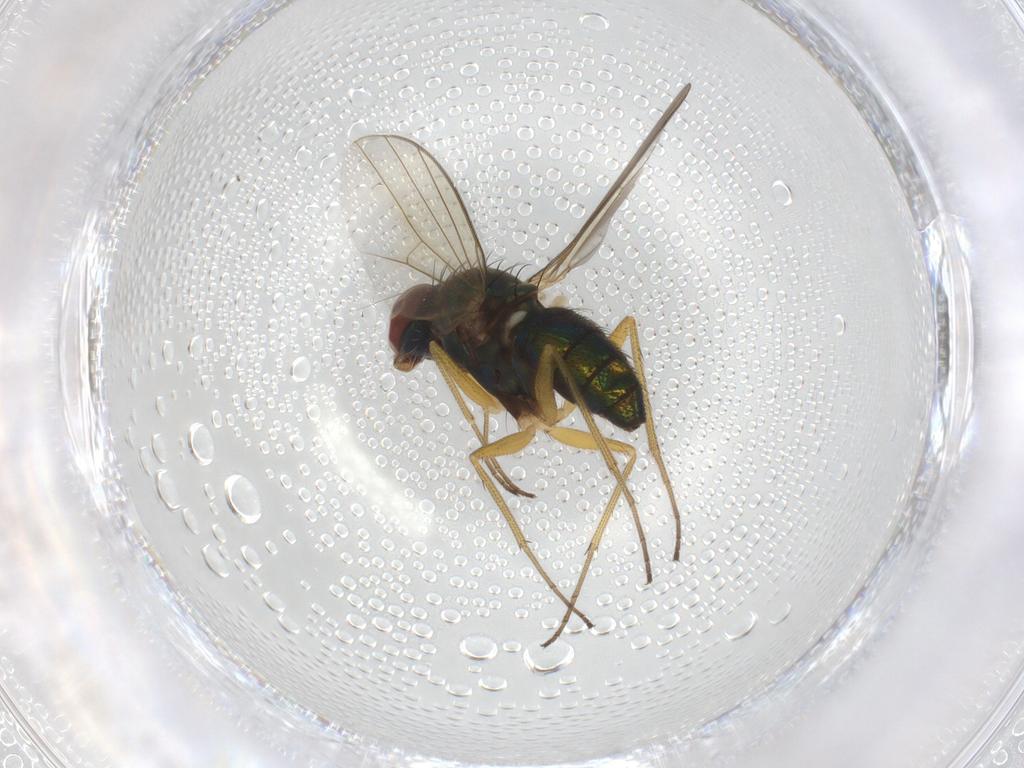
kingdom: Animalia
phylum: Arthropoda
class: Insecta
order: Diptera
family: Dolichopodidae
